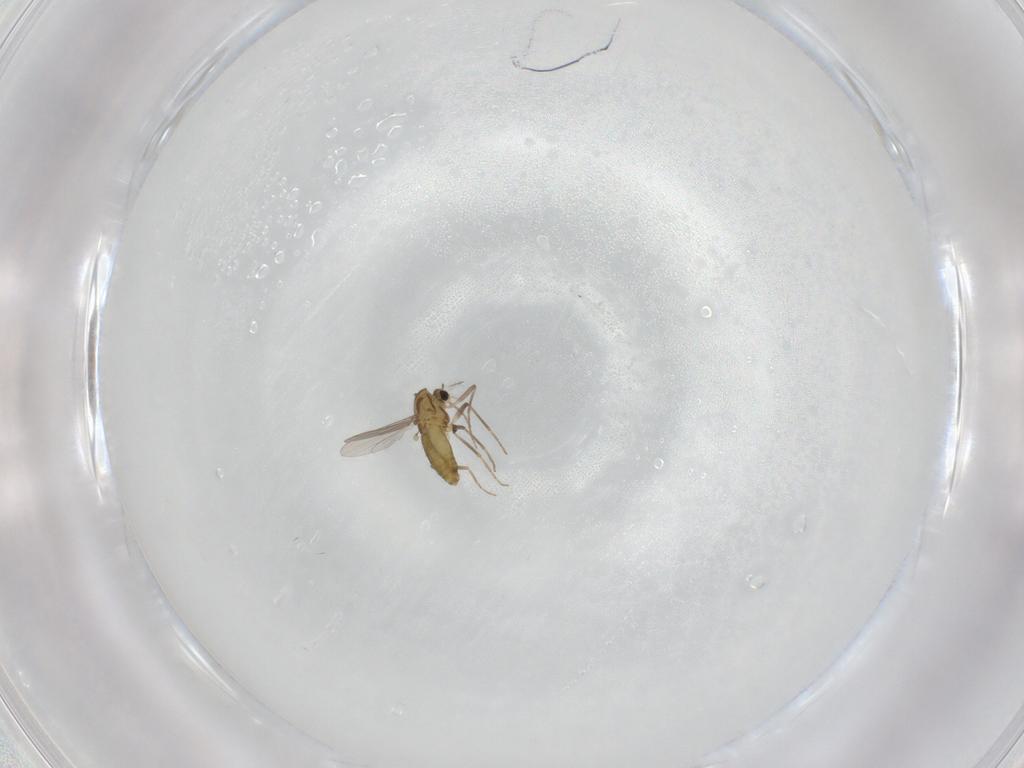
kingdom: Animalia
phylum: Arthropoda
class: Insecta
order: Diptera
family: Chironomidae
